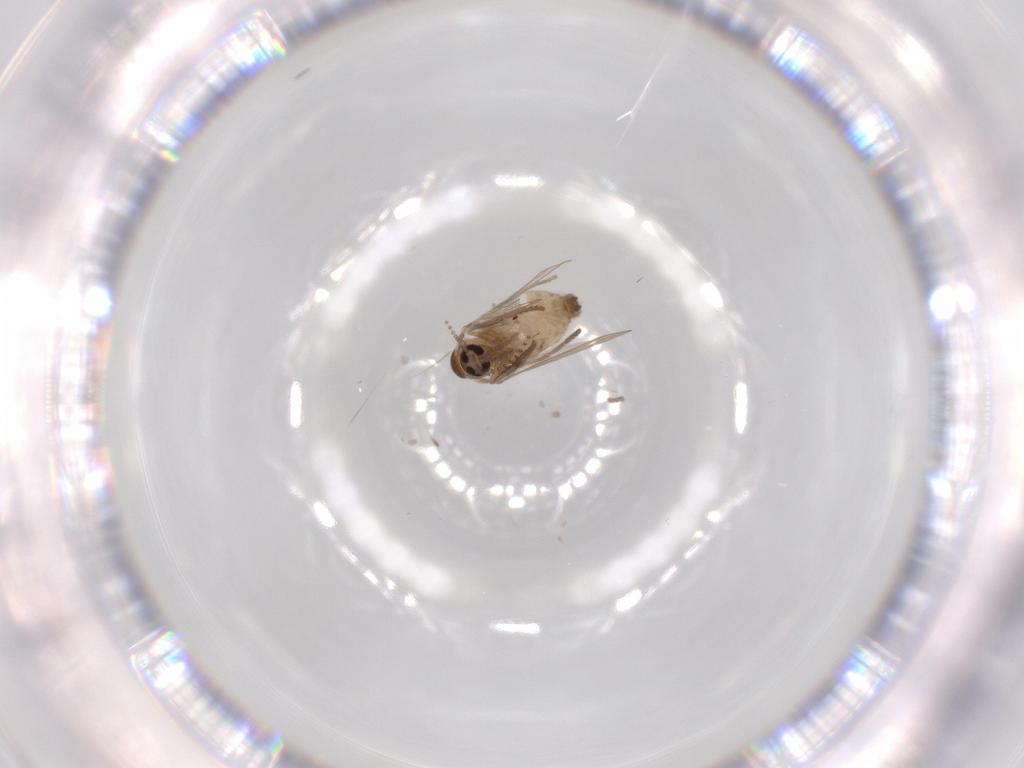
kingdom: Animalia
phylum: Arthropoda
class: Insecta
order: Diptera
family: Psychodidae
